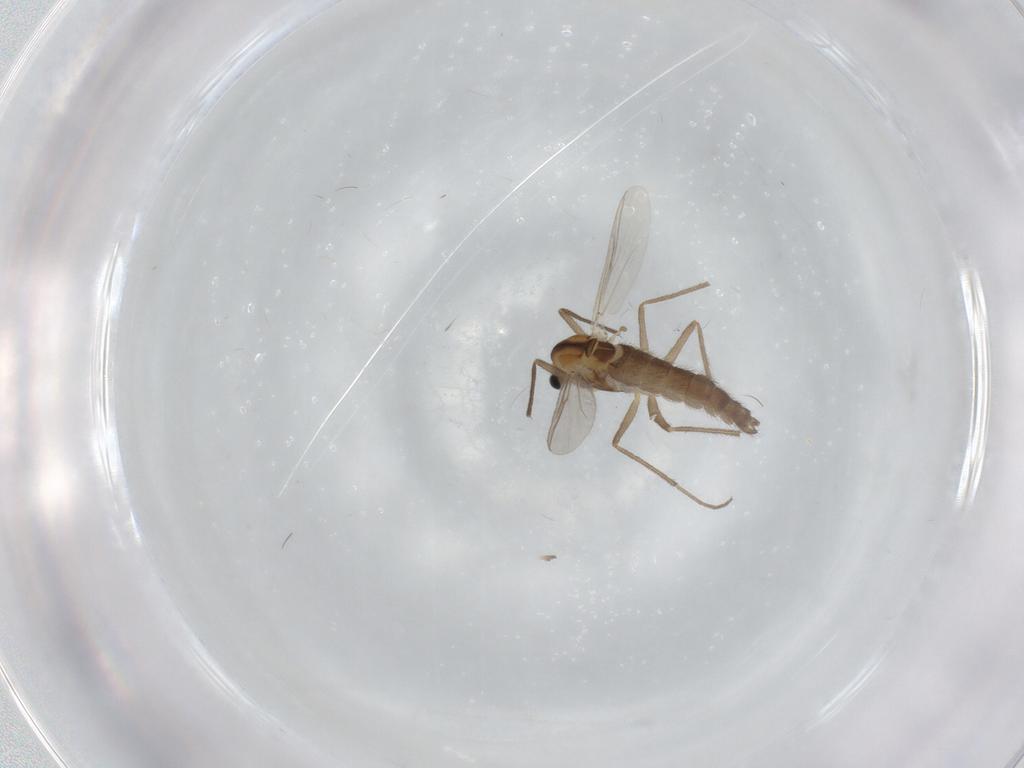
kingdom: Animalia
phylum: Arthropoda
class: Insecta
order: Diptera
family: Chironomidae
